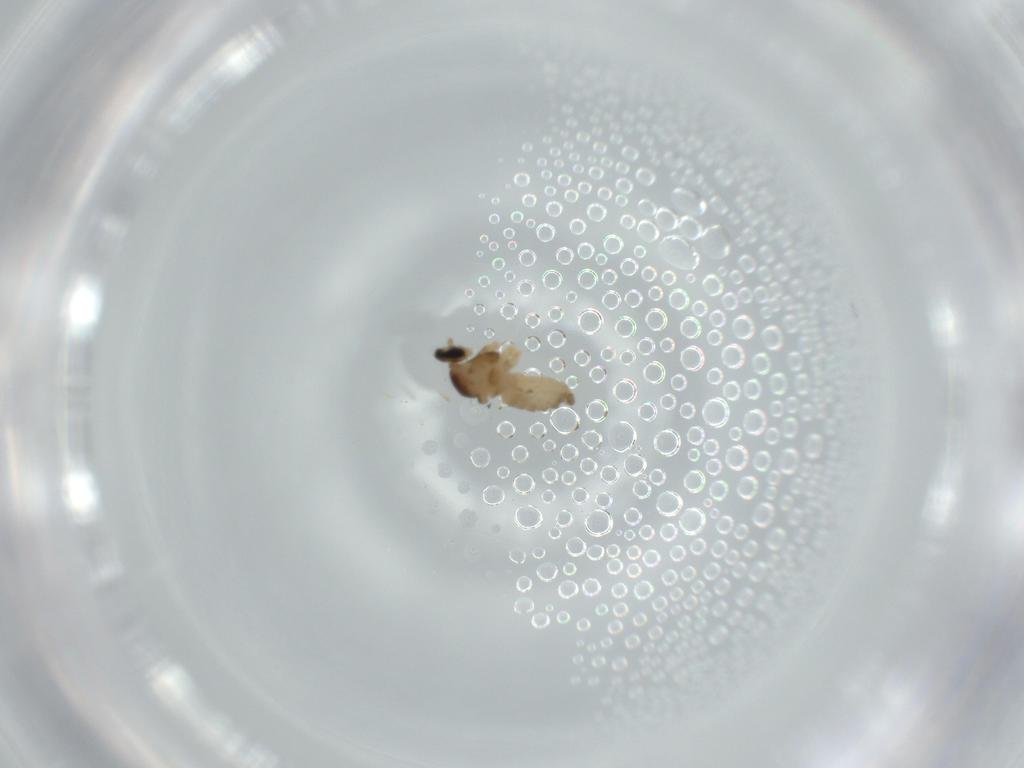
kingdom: Animalia
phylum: Arthropoda
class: Insecta
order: Diptera
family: Cecidomyiidae
